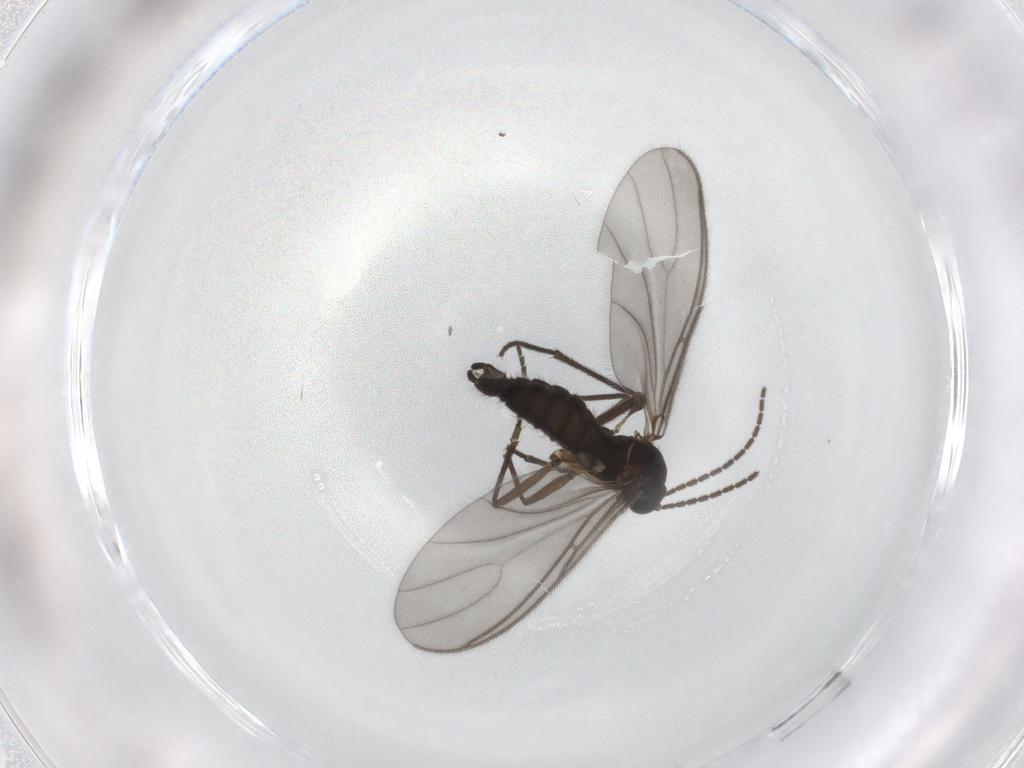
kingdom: Animalia
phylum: Arthropoda
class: Insecta
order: Diptera
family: Sciaridae
